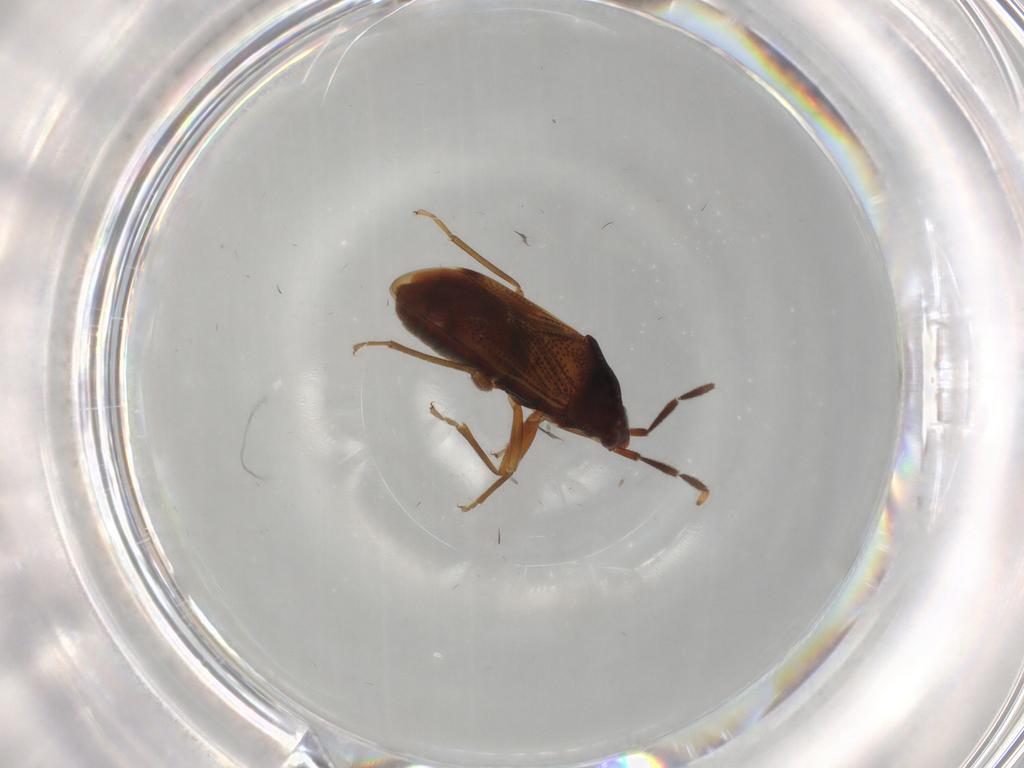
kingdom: Animalia
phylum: Arthropoda
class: Insecta
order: Hemiptera
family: Rhyparochromidae
